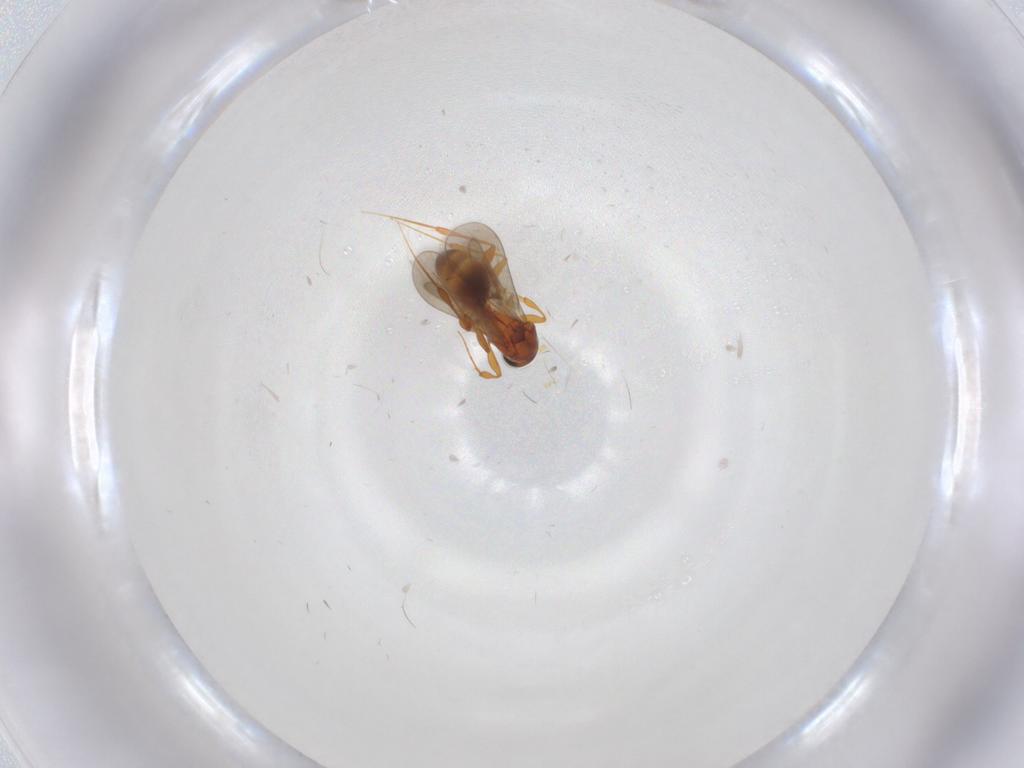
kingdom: Animalia
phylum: Arthropoda
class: Insecta
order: Hymenoptera
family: Platygastridae
